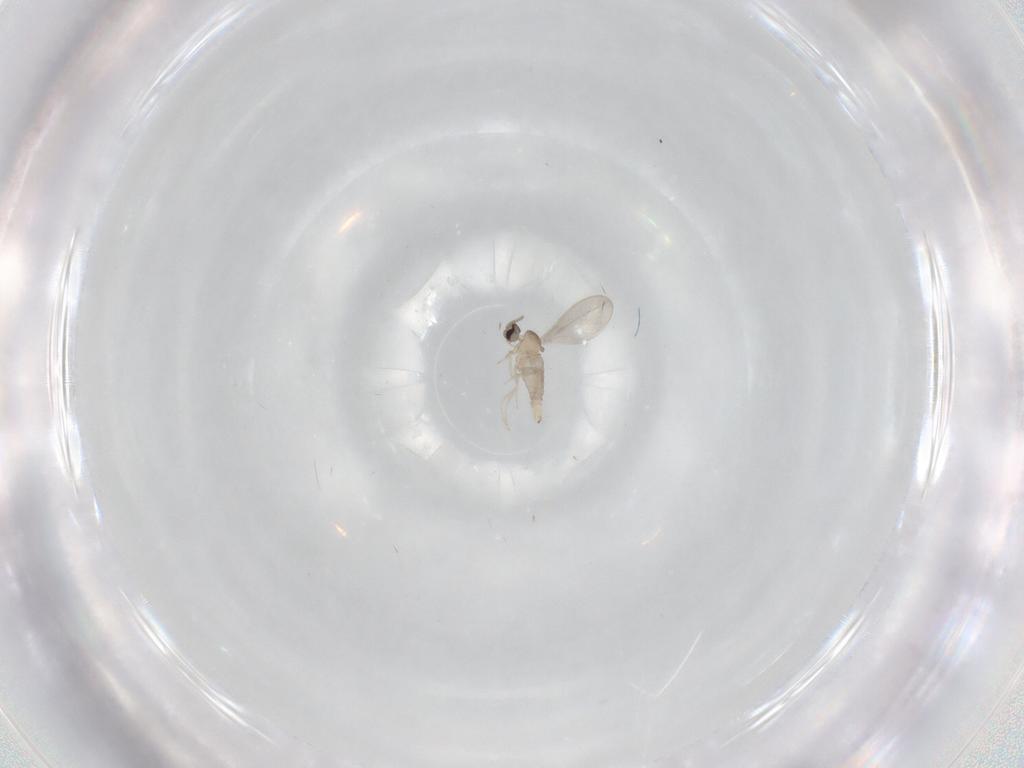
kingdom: Animalia
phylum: Arthropoda
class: Insecta
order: Diptera
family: Cecidomyiidae
